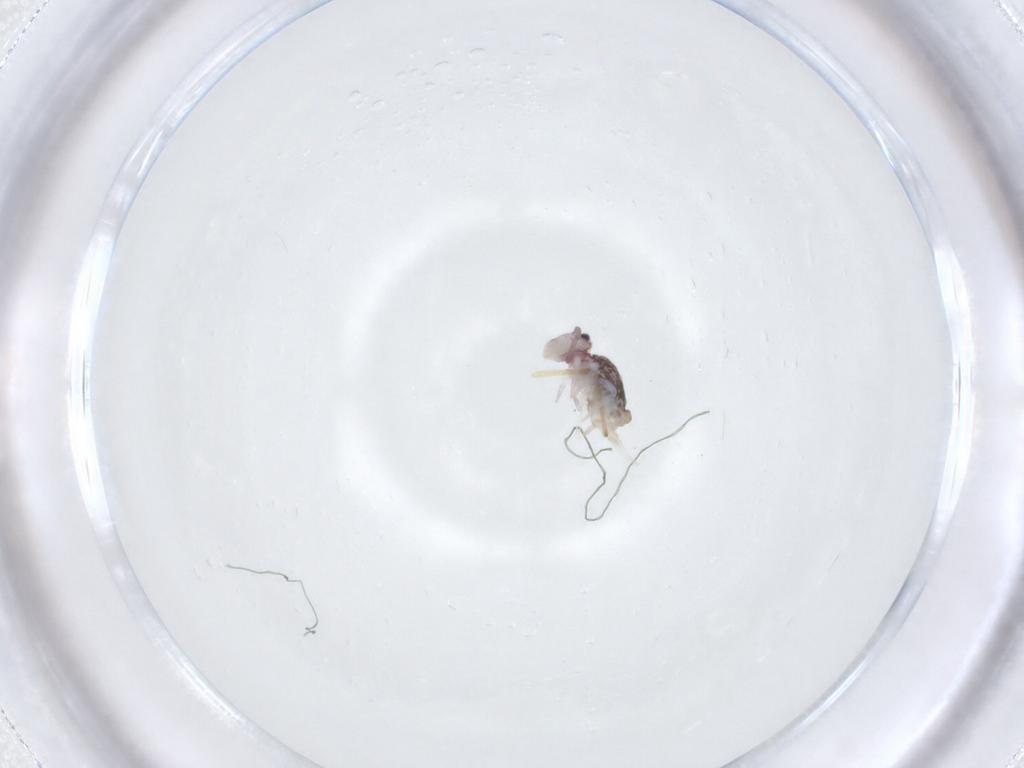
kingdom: Animalia
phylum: Arthropoda
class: Collembola
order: Symphypleona
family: Dicyrtomidae
